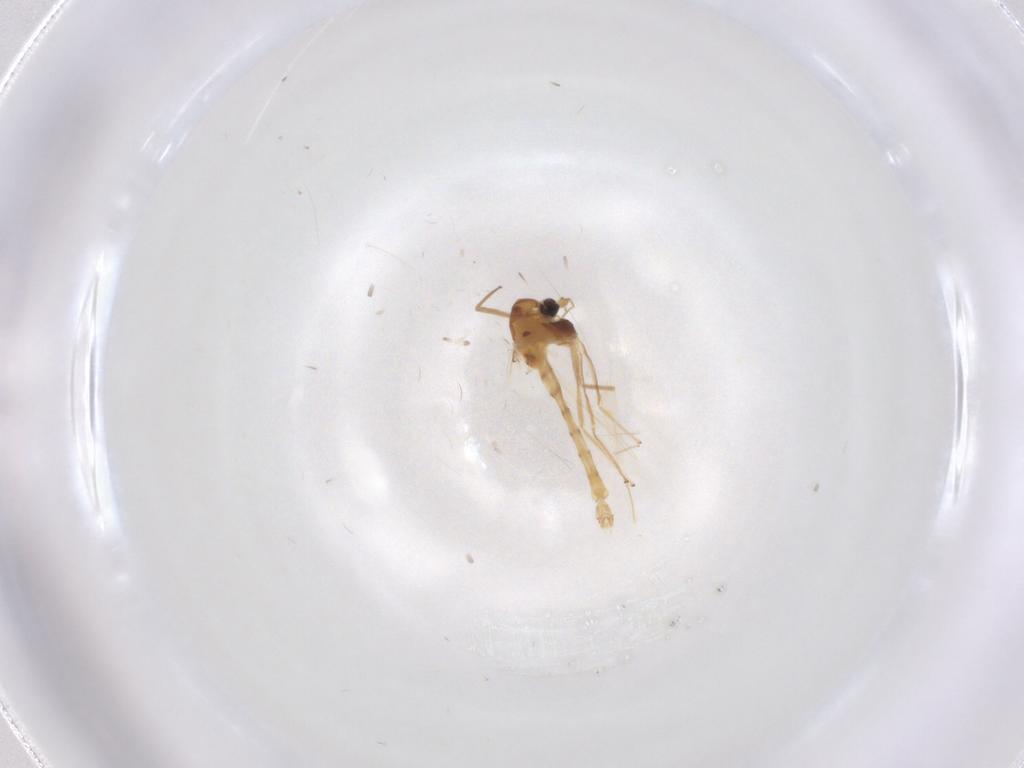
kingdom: Animalia
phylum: Arthropoda
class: Insecta
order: Diptera
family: Chironomidae
